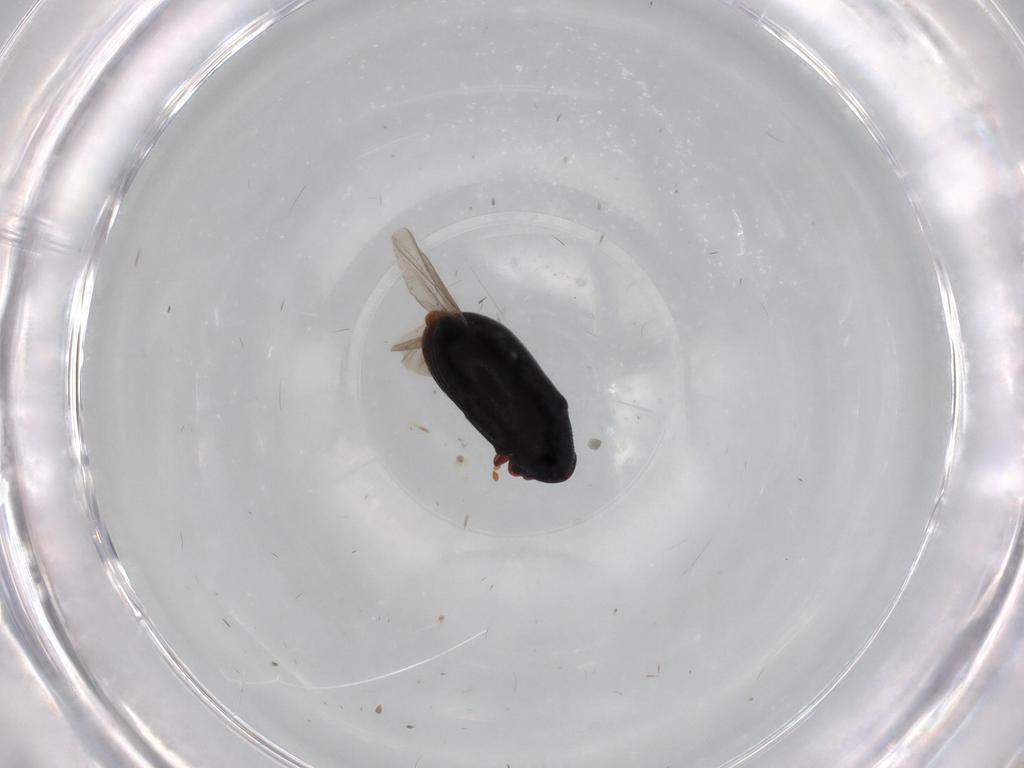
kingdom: Animalia
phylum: Arthropoda
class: Insecta
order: Coleoptera
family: Ptinidae
